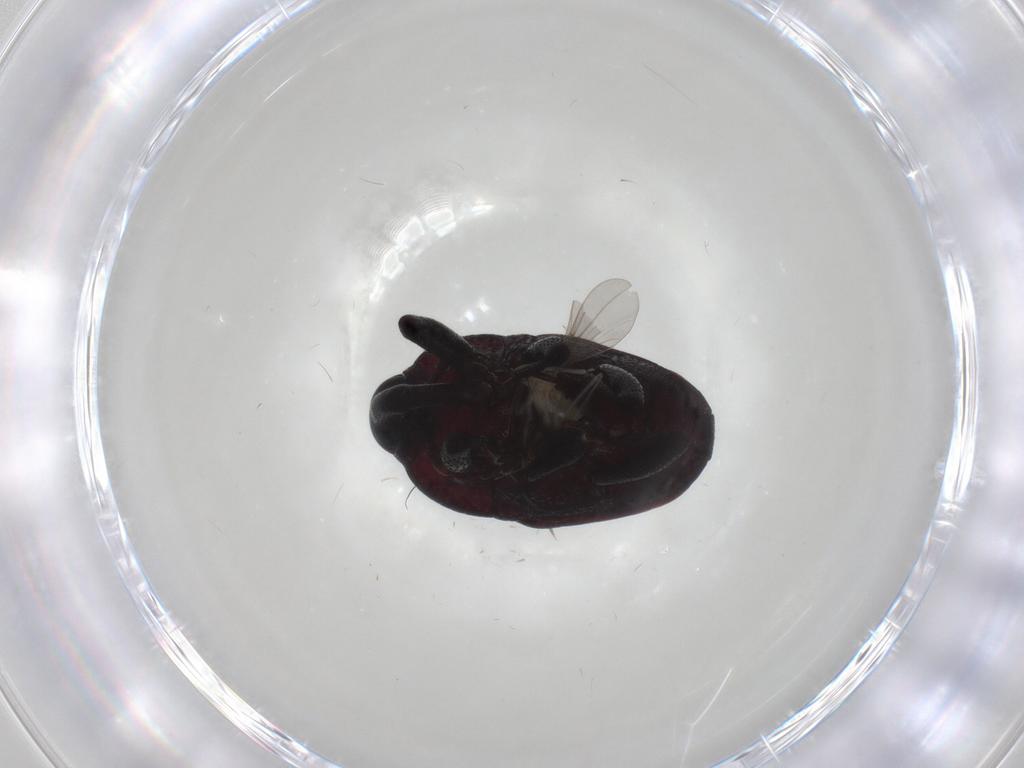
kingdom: Animalia
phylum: Arthropoda
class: Insecta
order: Coleoptera
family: Curculionidae
